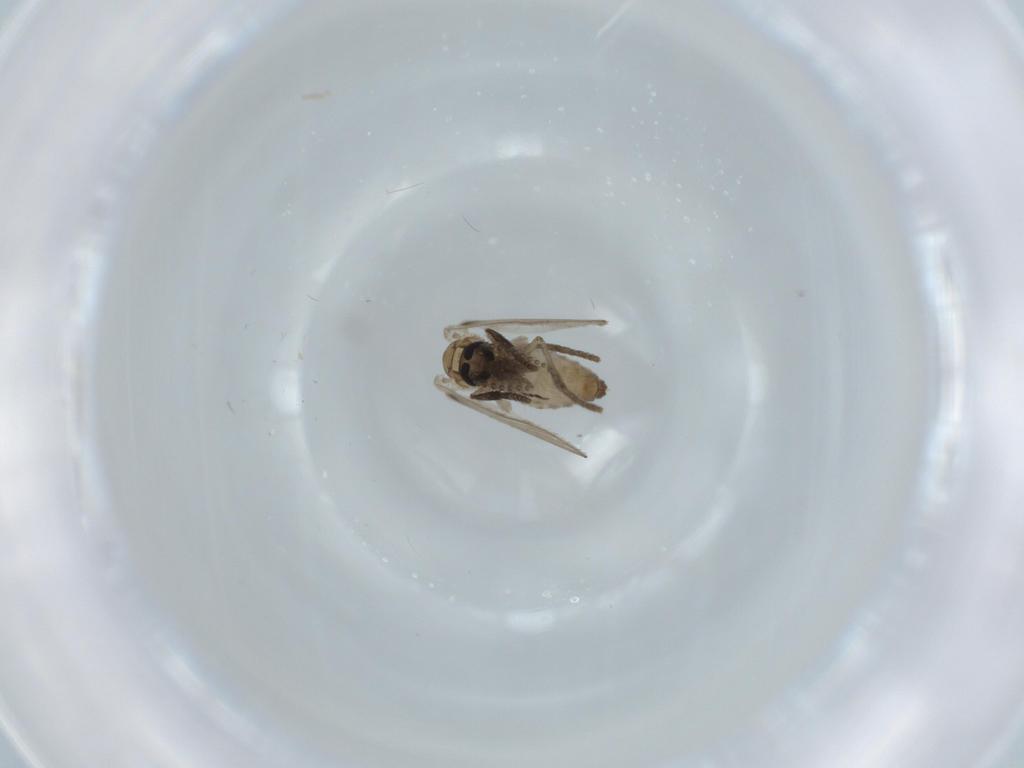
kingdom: Animalia
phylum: Arthropoda
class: Insecta
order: Diptera
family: Psychodidae
